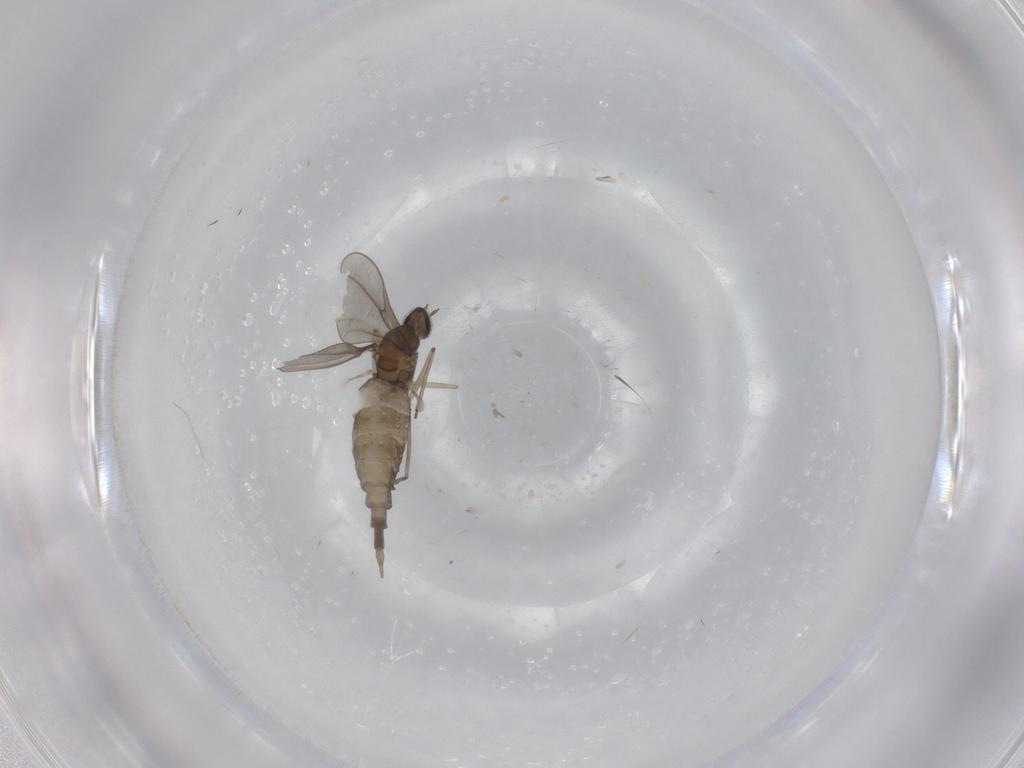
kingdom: Animalia
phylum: Arthropoda
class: Insecta
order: Diptera
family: Cecidomyiidae
